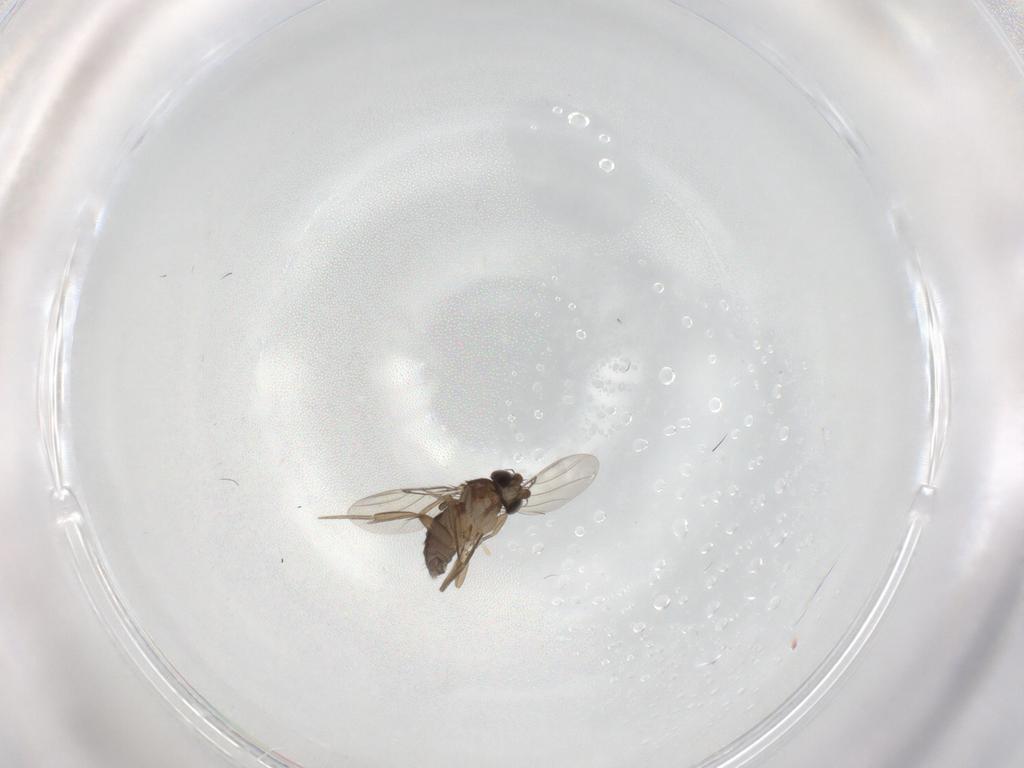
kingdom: Animalia
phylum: Arthropoda
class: Insecta
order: Diptera
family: Phoridae
